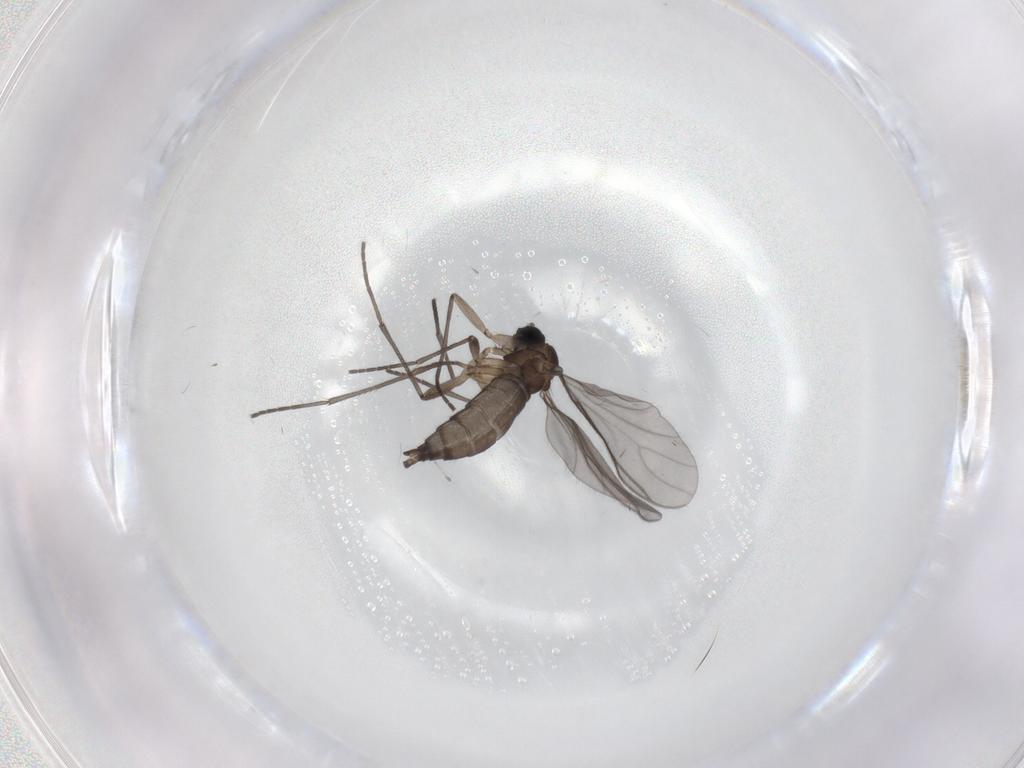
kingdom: Animalia
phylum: Arthropoda
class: Insecta
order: Diptera
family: Sciaridae
